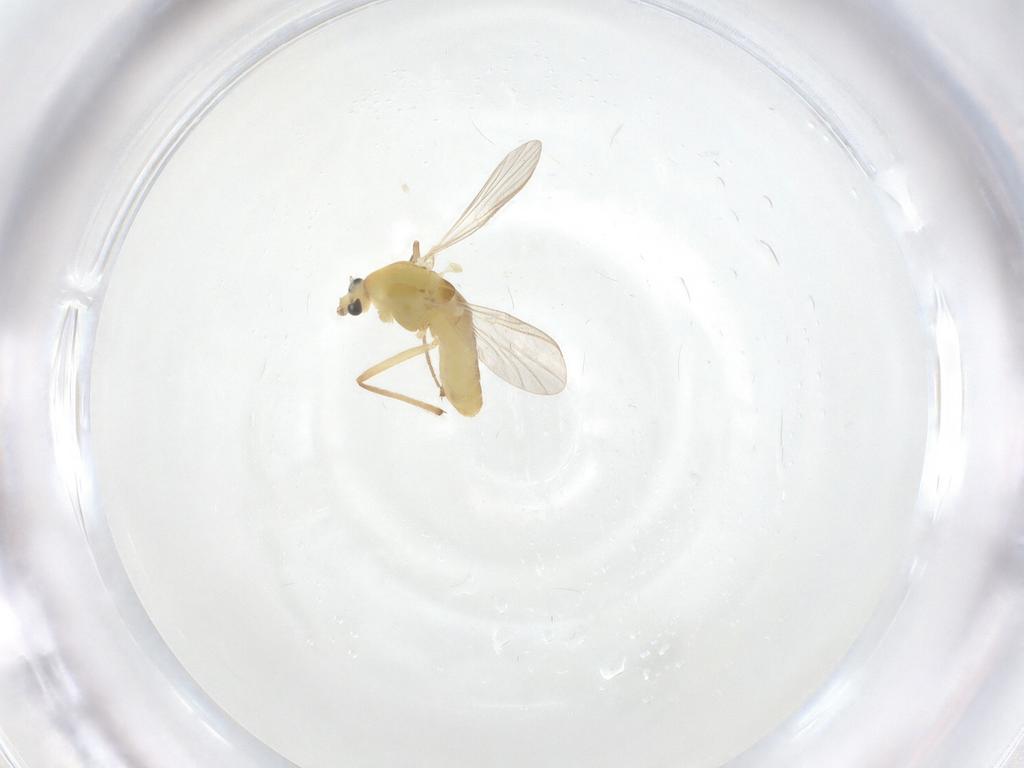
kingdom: Animalia
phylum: Arthropoda
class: Insecta
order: Diptera
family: Chironomidae
